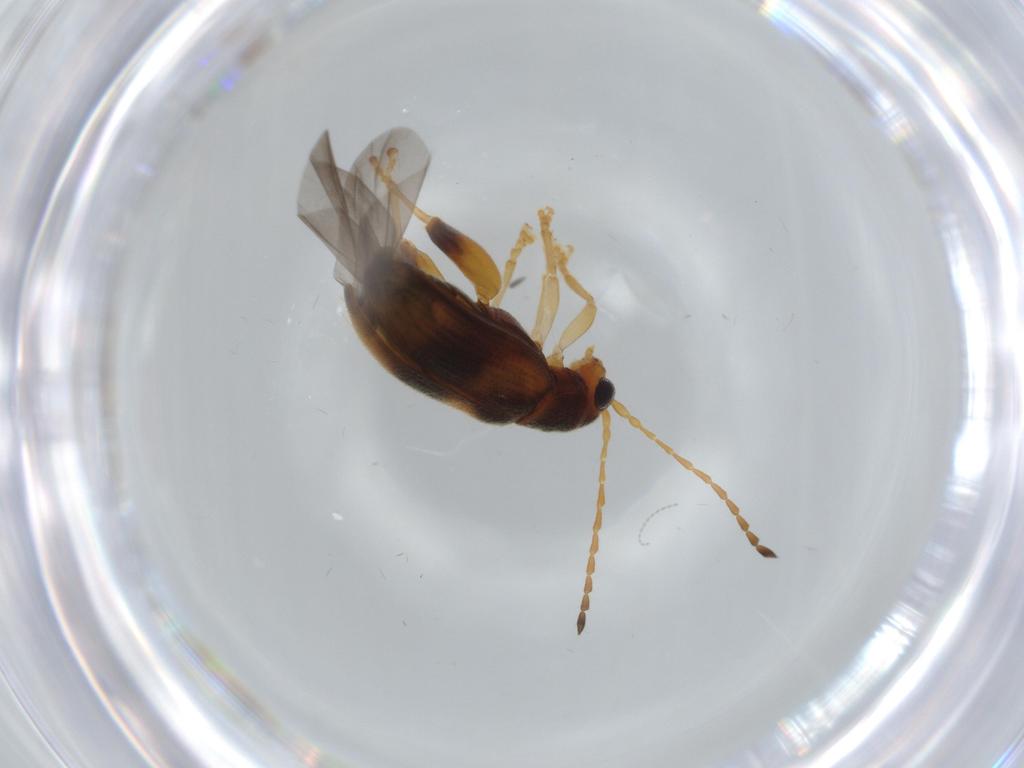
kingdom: Animalia
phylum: Arthropoda
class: Insecta
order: Coleoptera
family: Chrysomelidae
